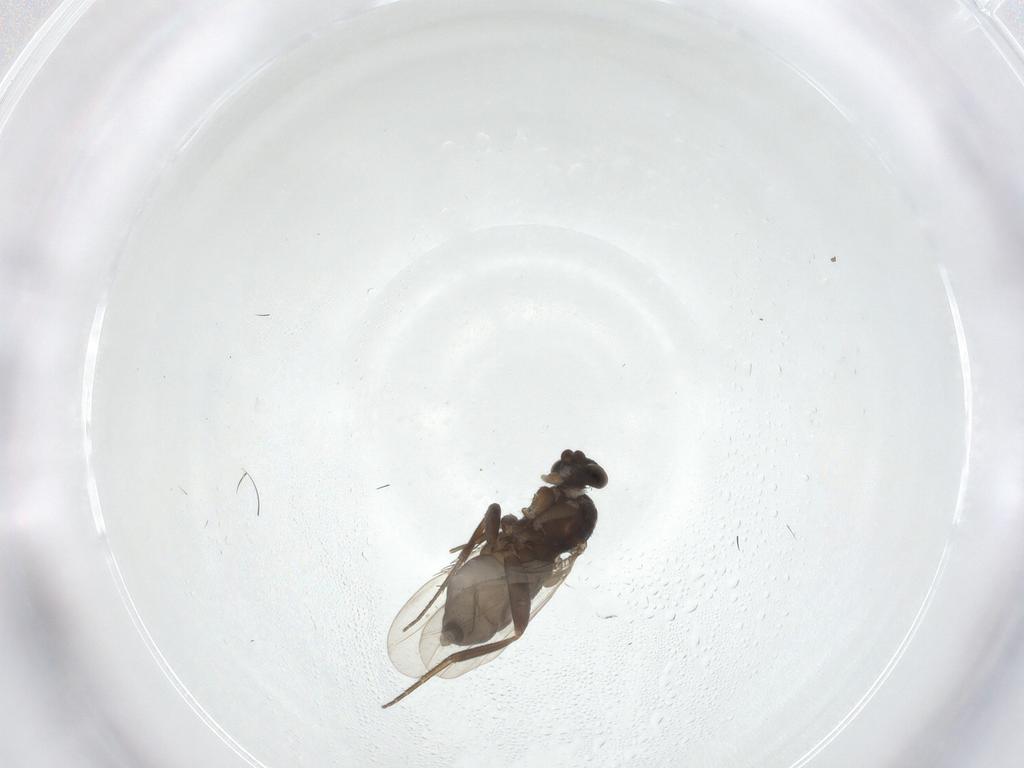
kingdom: Animalia
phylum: Arthropoda
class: Insecta
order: Diptera
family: Phoridae
